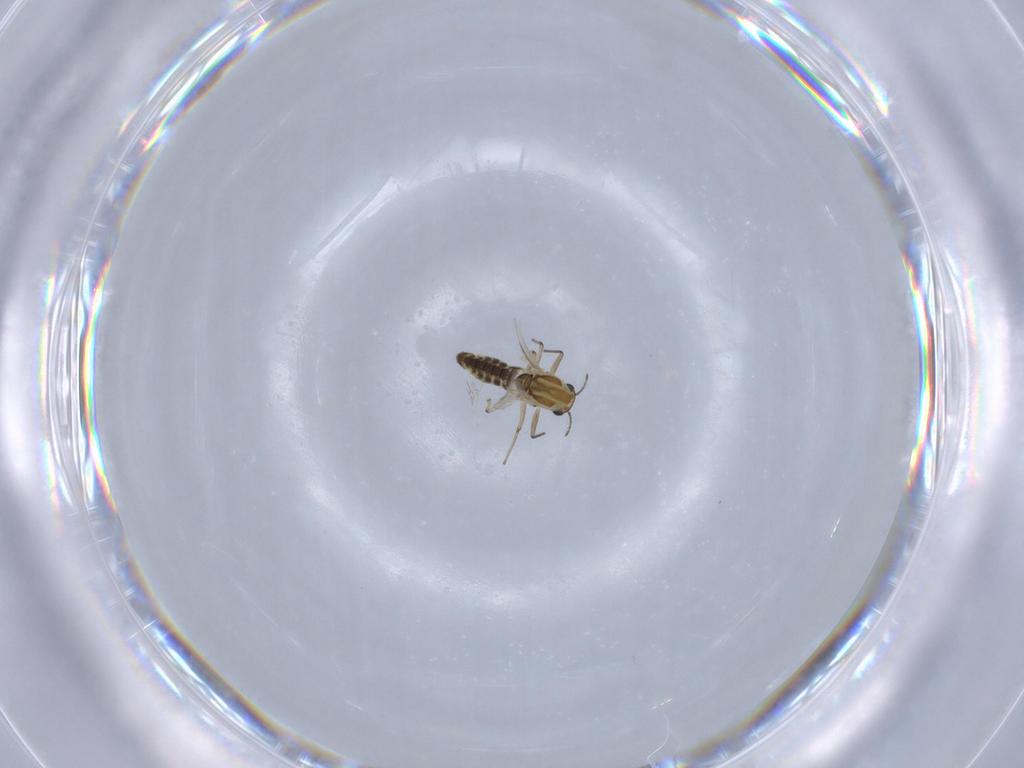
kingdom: Animalia
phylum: Arthropoda
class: Insecta
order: Diptera
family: Chironomidae
